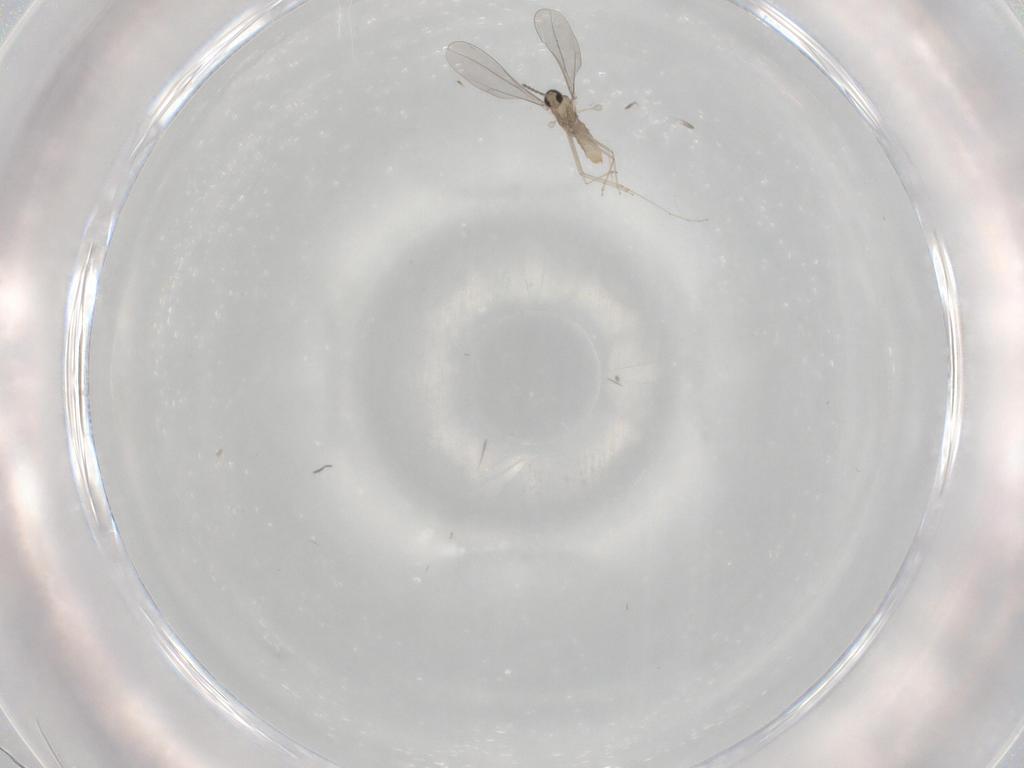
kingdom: Animalia
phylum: Arthropoda
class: Insecta
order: Diptera
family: Cecidomyiidae
